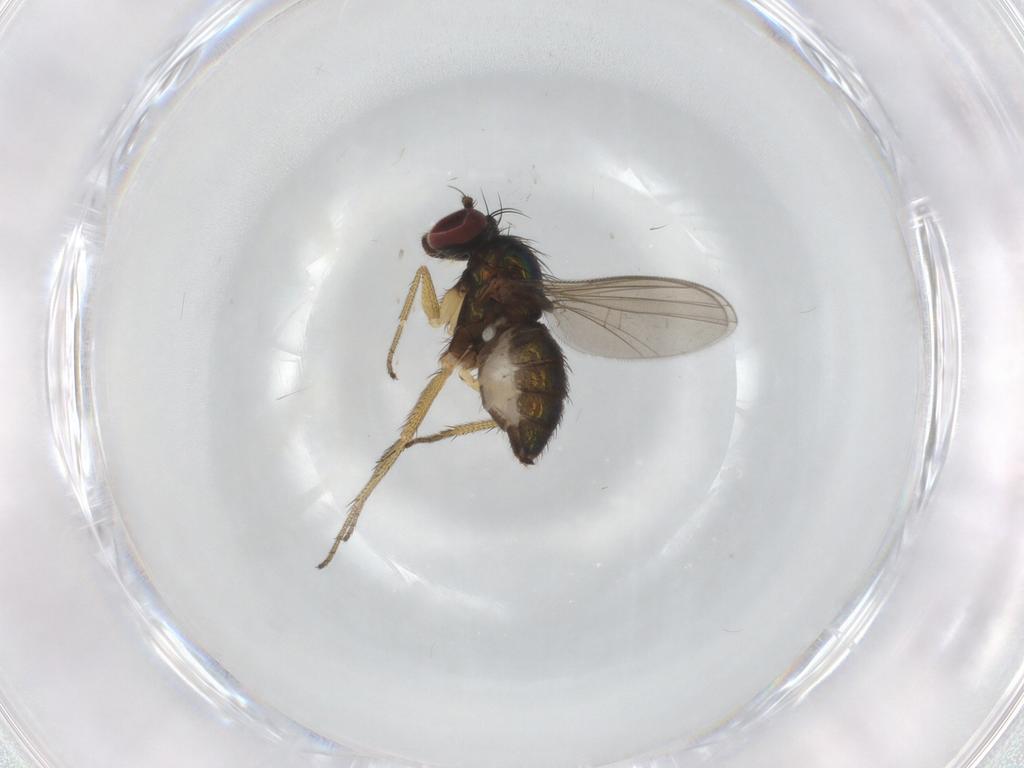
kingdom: Animalia
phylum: Arthropoda
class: Insecta
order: Diptera
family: Dolichopodidae
